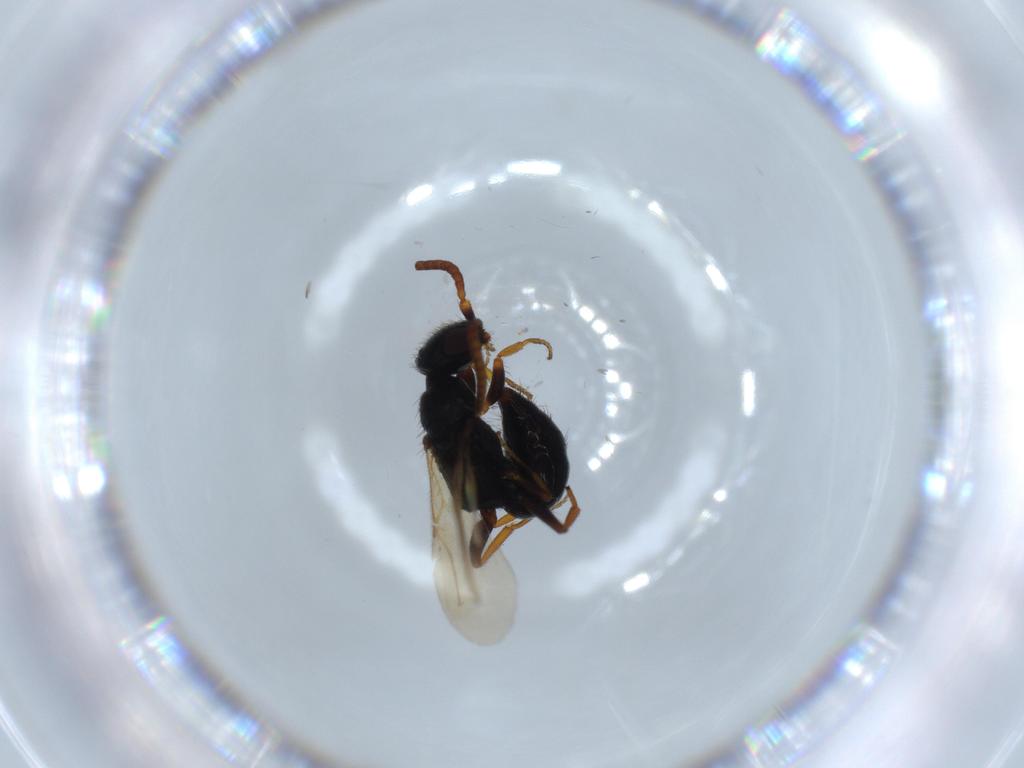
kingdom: Animalia
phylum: Arthropoda
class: Insecta
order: Hymenoptera
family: Bethylidae
